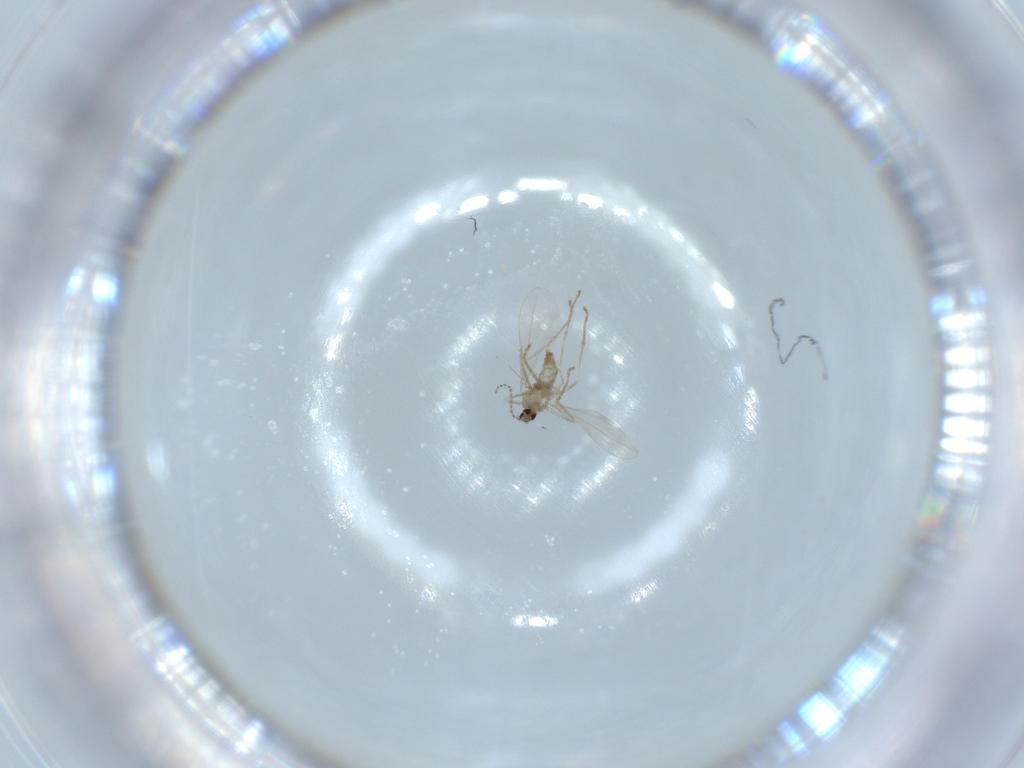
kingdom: Animalia
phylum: Arthropoda
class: Insecta
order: Diptera
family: Cecidomyiidae
